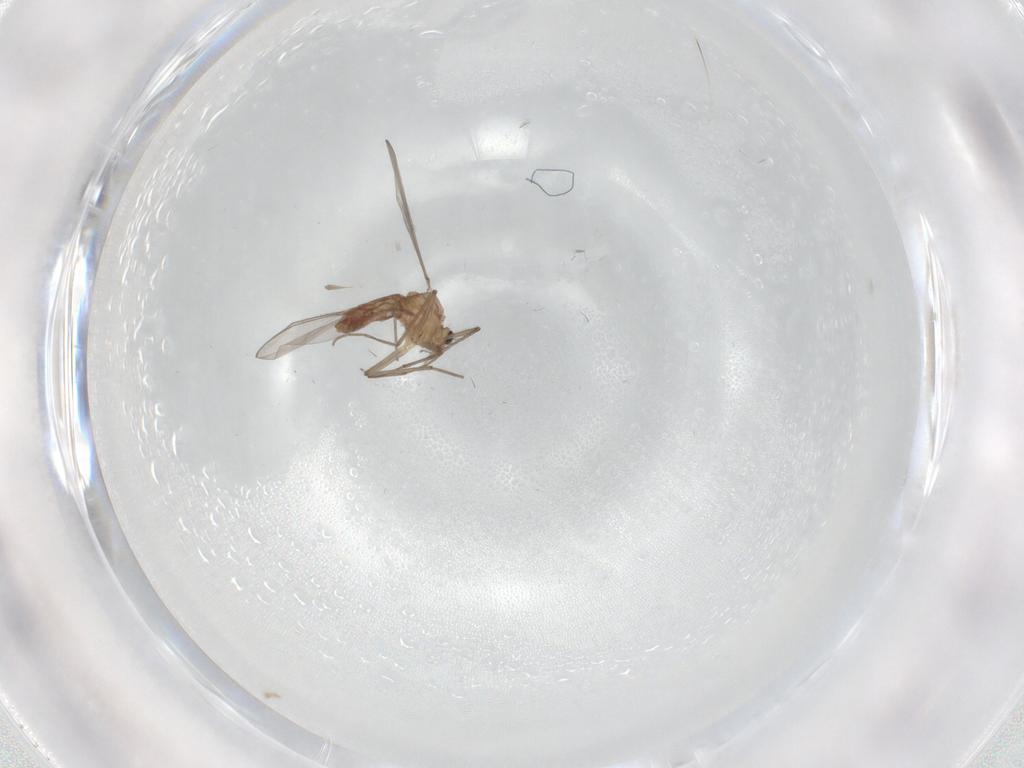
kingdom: Animalia
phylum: Arthropoda
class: Insecta
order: Diptera
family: Chironomidae
